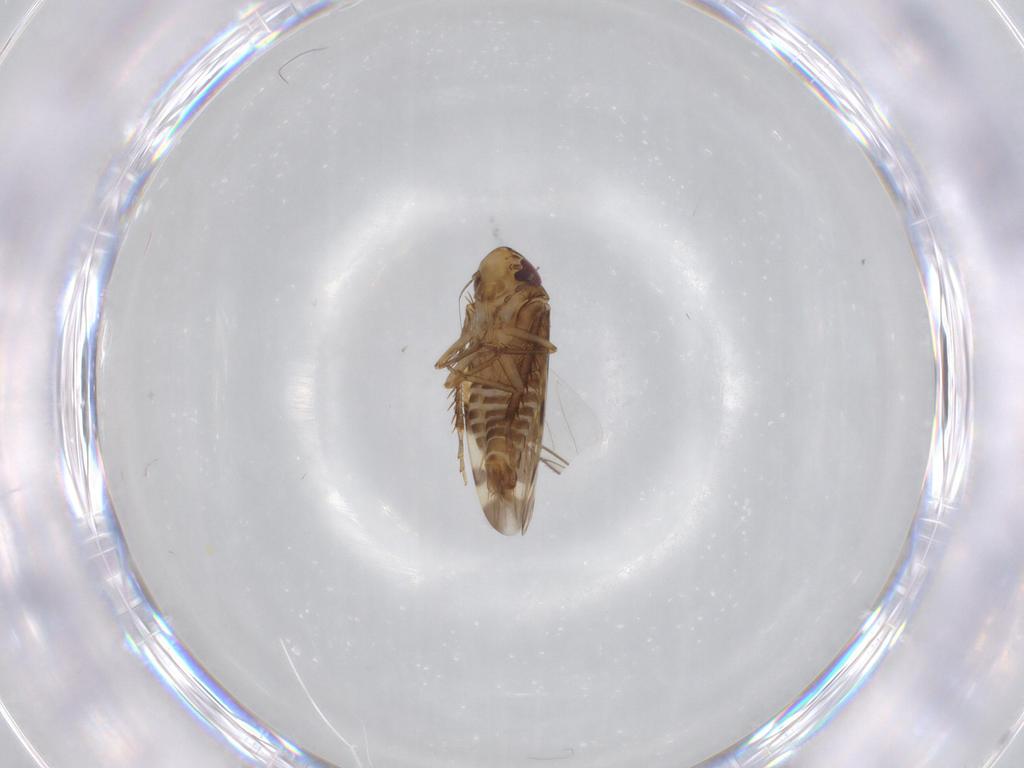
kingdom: Animalia
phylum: Arthropoda
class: Insecta
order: Hemiptera
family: Cicadellidae
